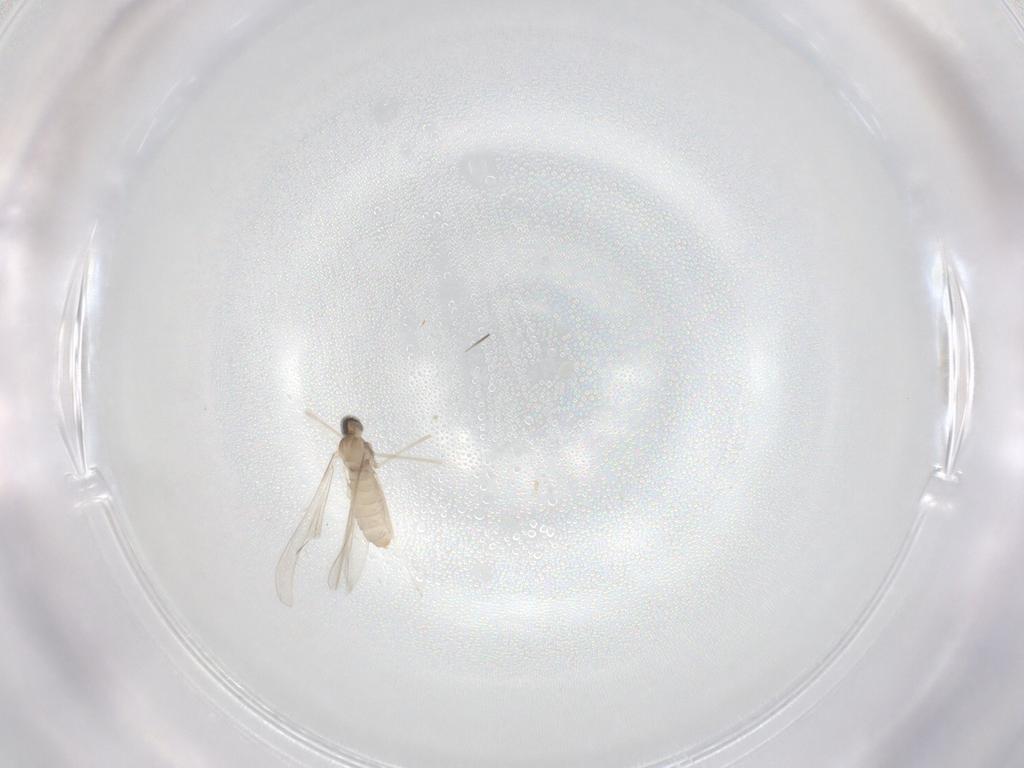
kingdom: Animalia
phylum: Arthropoda
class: Insecta
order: Diptera
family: Cecidomyiidae
